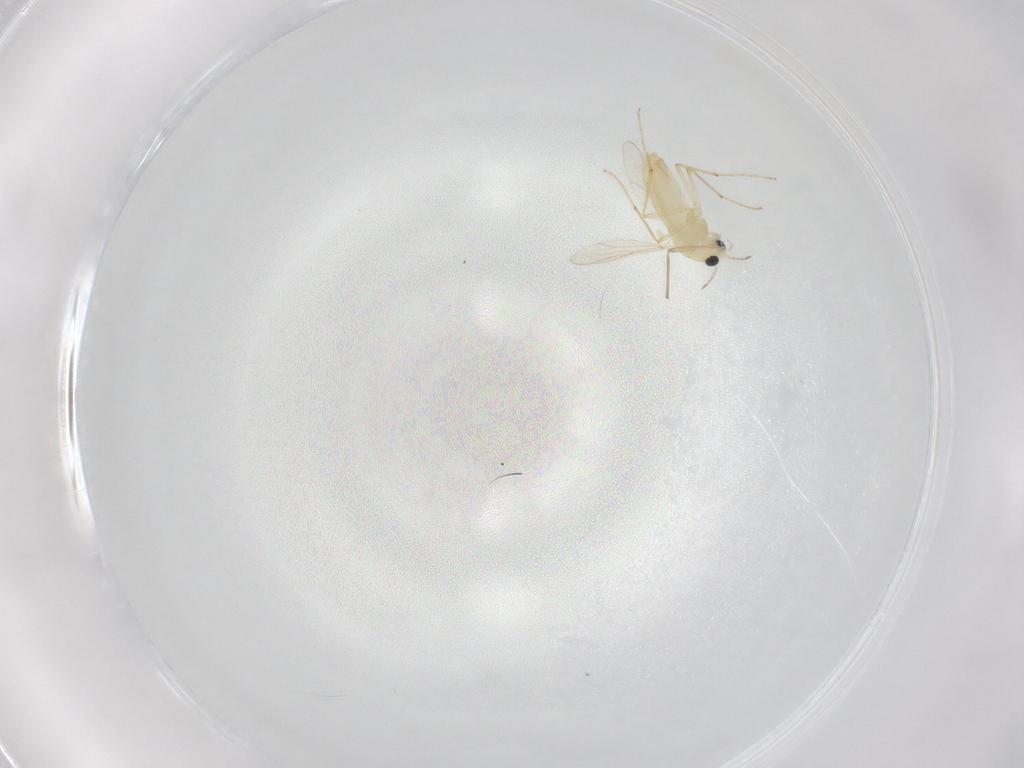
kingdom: Animalia
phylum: Arthropoda
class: Insecta
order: Diptera
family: Chironomidae
